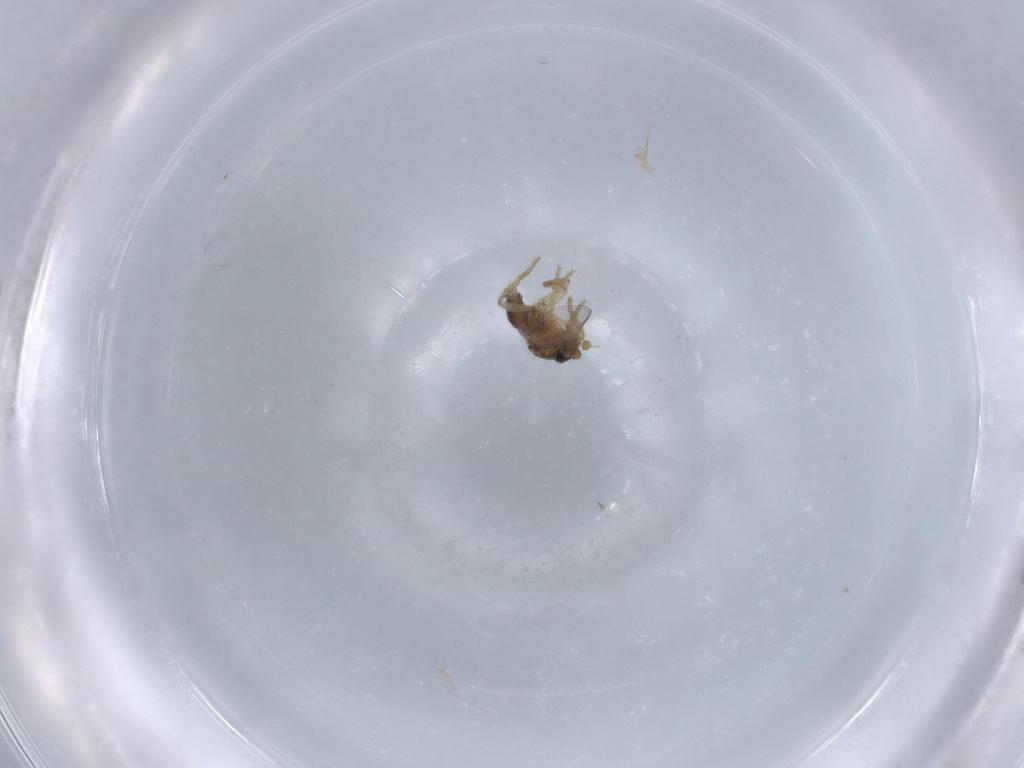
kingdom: Animalia
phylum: Arthropoda
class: Insecta
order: Diptera
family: Phoridae
